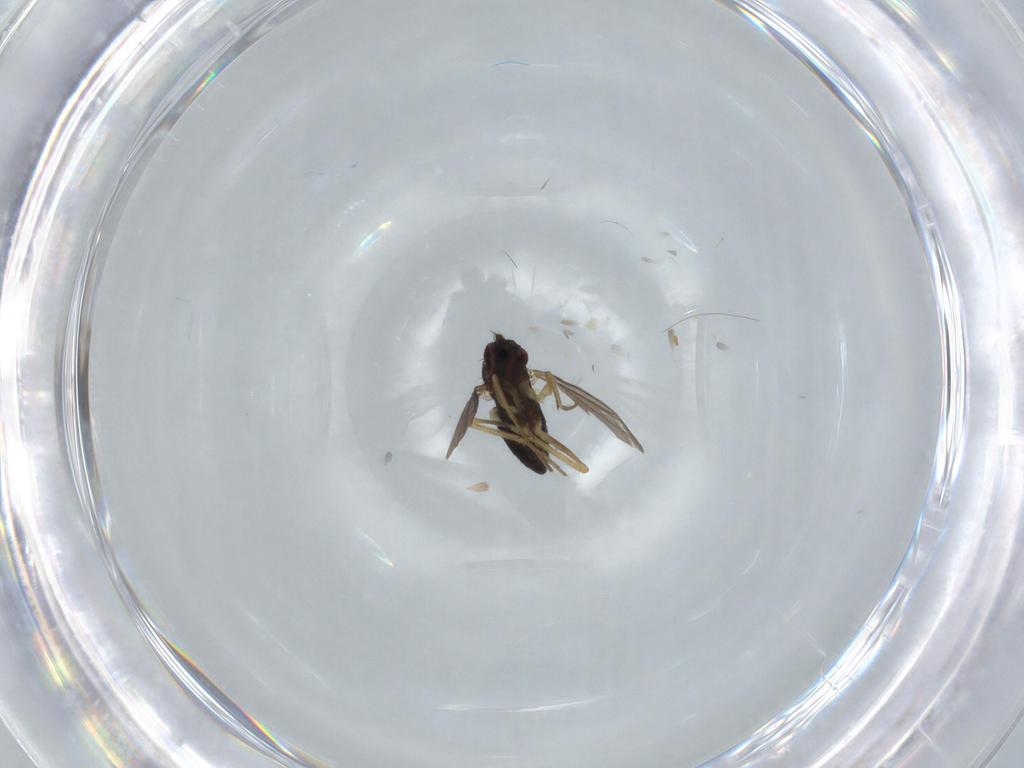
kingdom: Animalia
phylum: Arthropoda
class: Insecta
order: Diptera
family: Dolichopodidae
